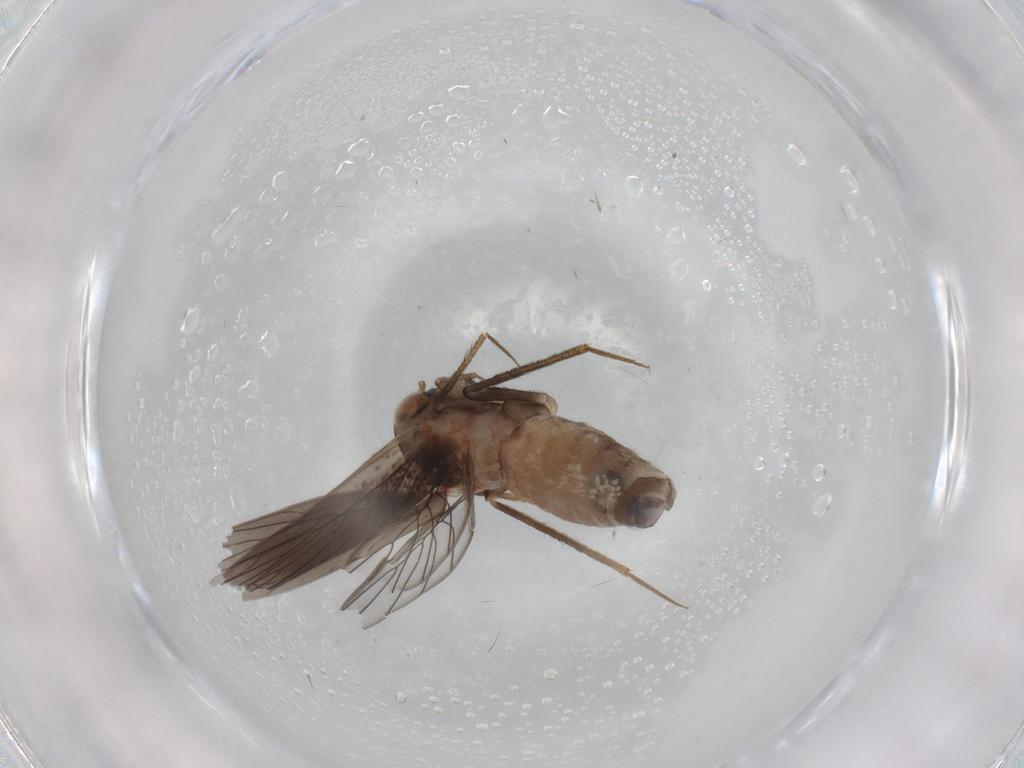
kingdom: Animalia
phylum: Arthropoda
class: Insecta
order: Psocodea
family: Lepidopsocidae
